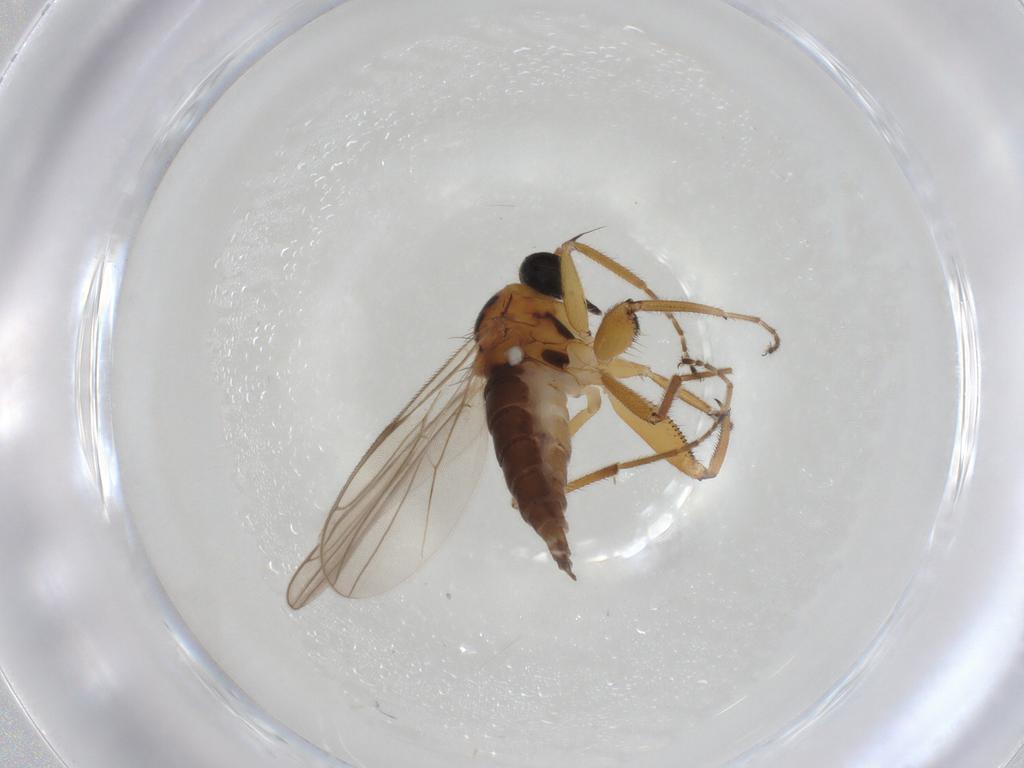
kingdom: Animalia
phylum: Arthropoda
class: Insecta
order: Diptera
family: Hybotidae
